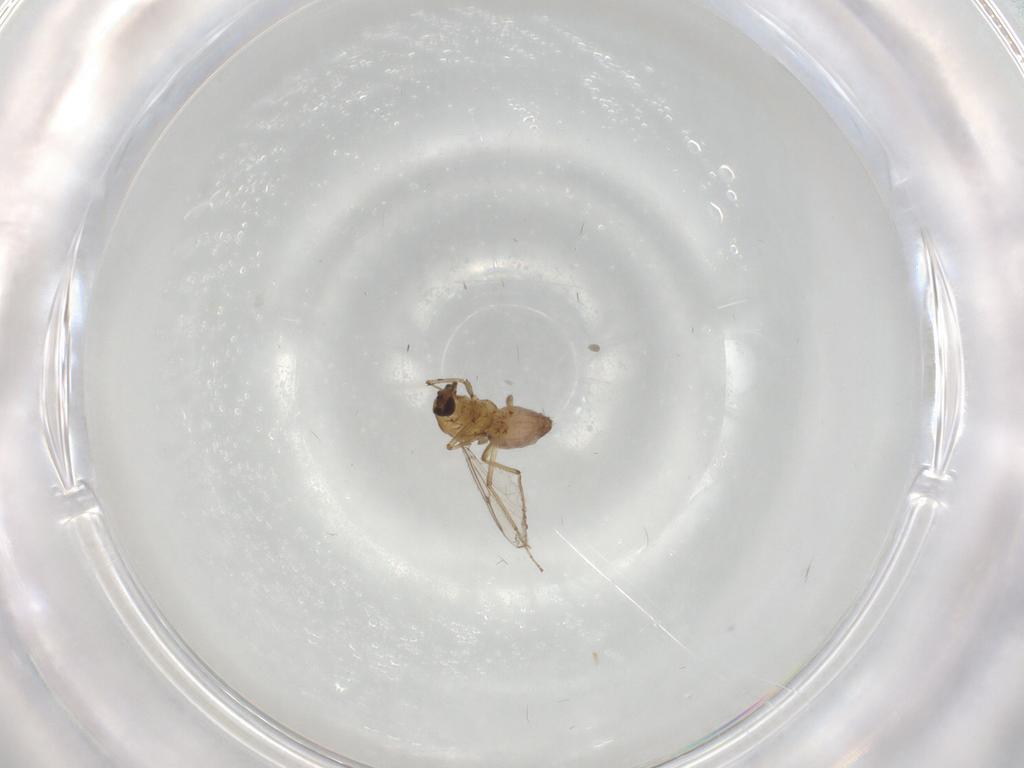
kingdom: Animalia
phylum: Arthropoda
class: Insecta
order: Diptera
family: Ceratopogonidae
